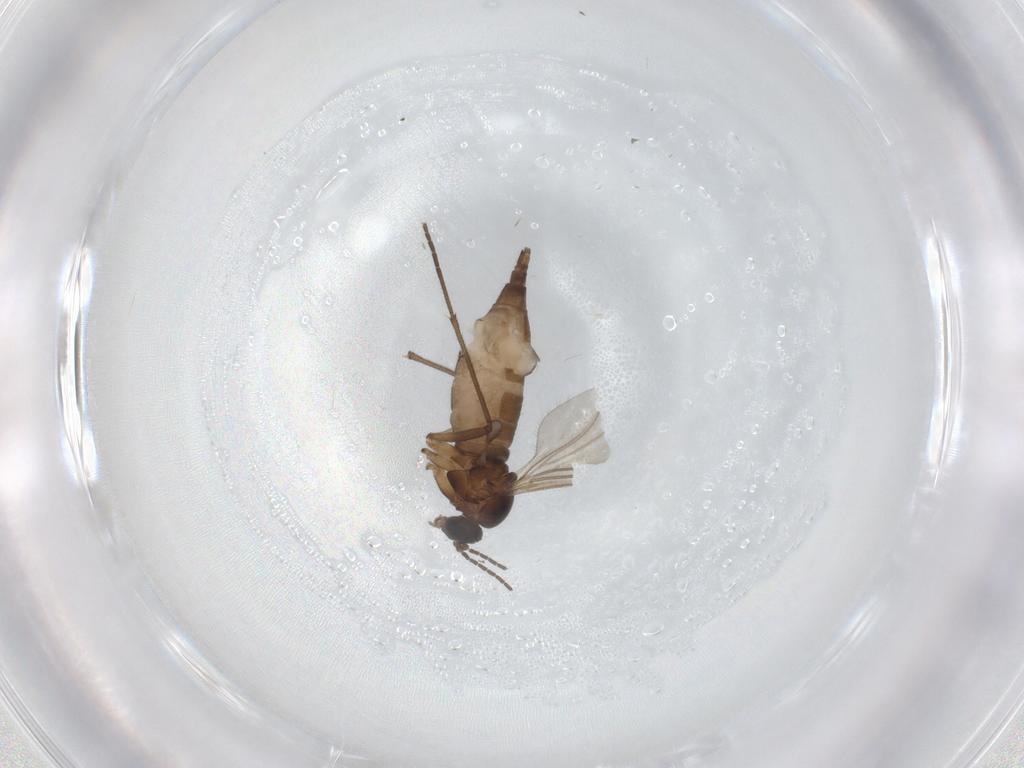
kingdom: Animalia
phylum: Arthropoda
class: Insecta
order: Diptera
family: Sciaridae
